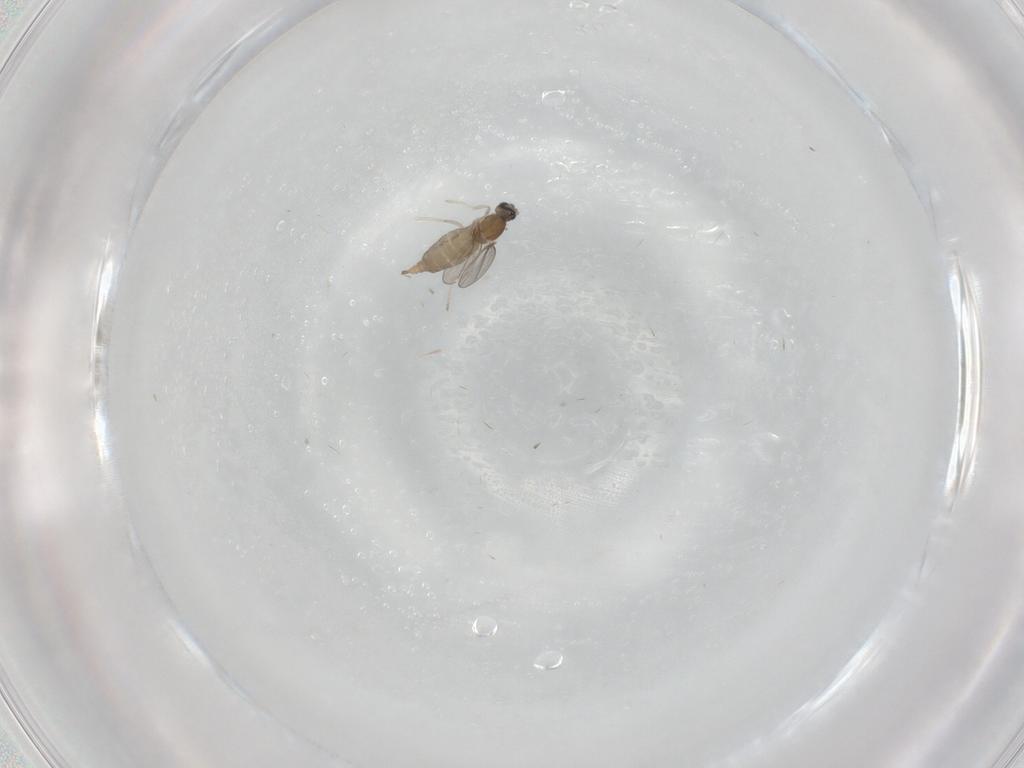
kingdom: Animalia
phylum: Arthropoda
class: Insecta
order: Diptera
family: Cecidomyiidae
